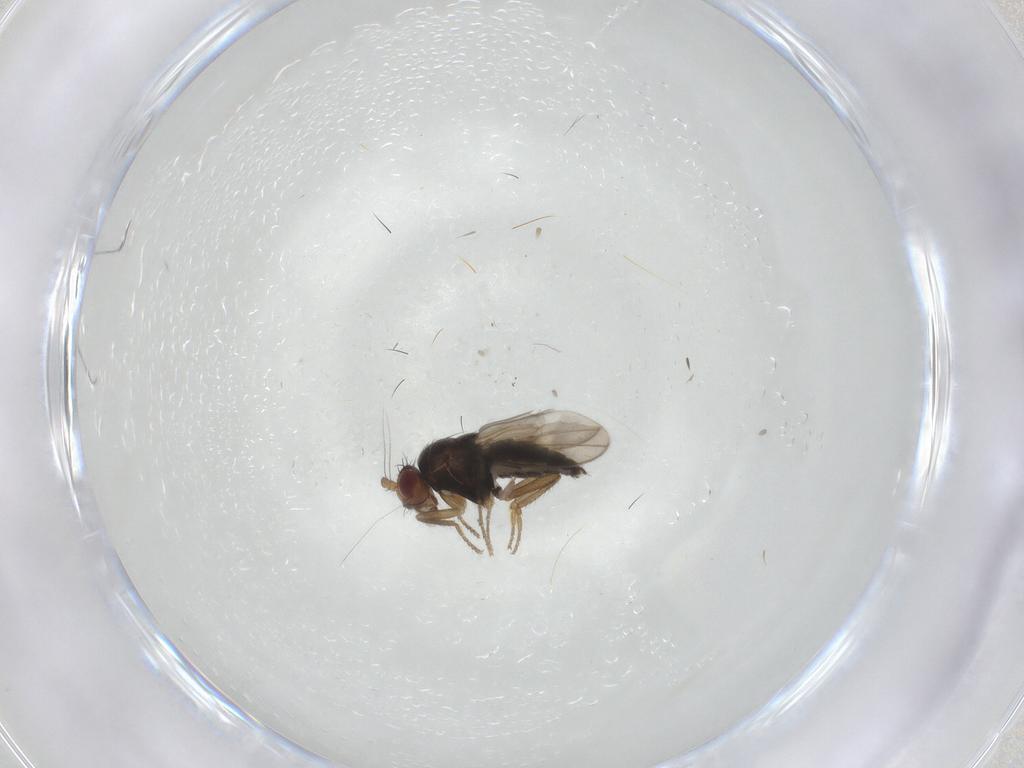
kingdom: Animalia
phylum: Arthropoda
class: Insecta
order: Diptera
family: Sphaeroceridae
